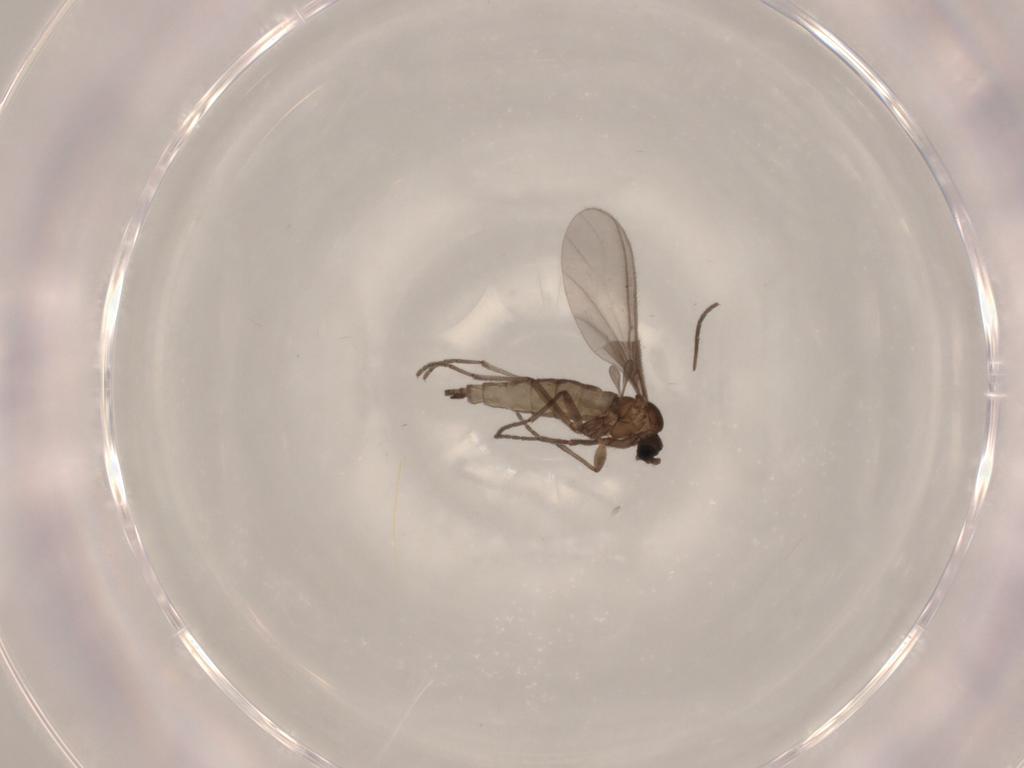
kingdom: Animalia
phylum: Arthropoda
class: Insecta
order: Diptera
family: Sciaridae
